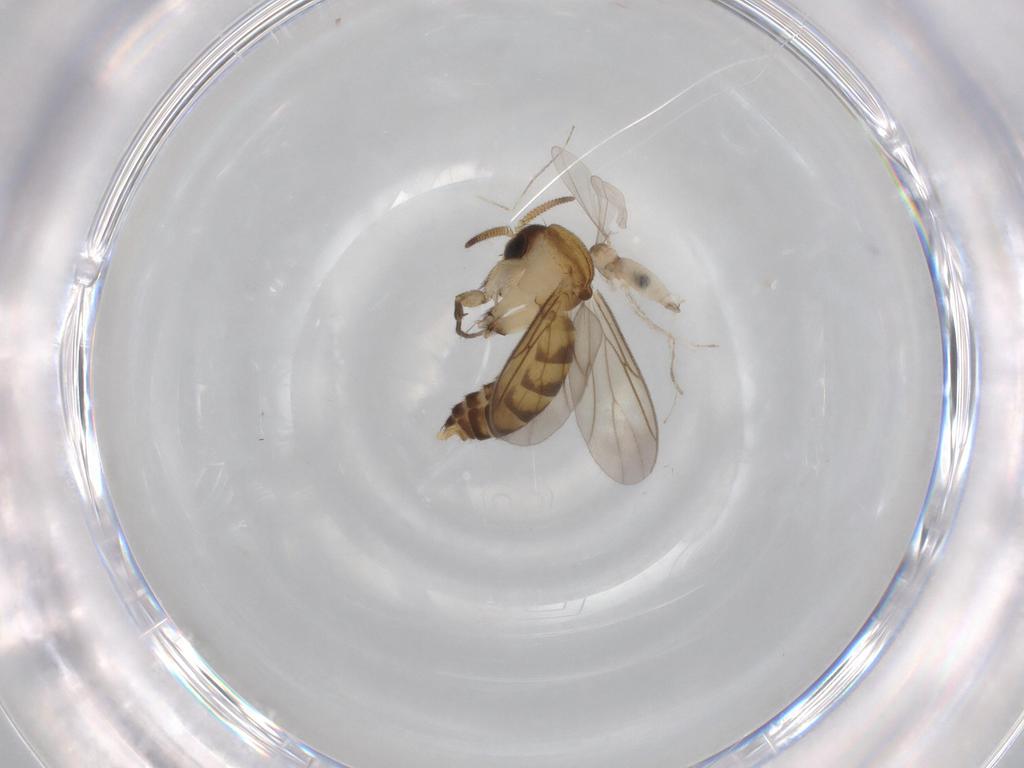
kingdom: Animalia
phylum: Arthropoda
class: Insecta
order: Diptera
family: Mycetophilidae
